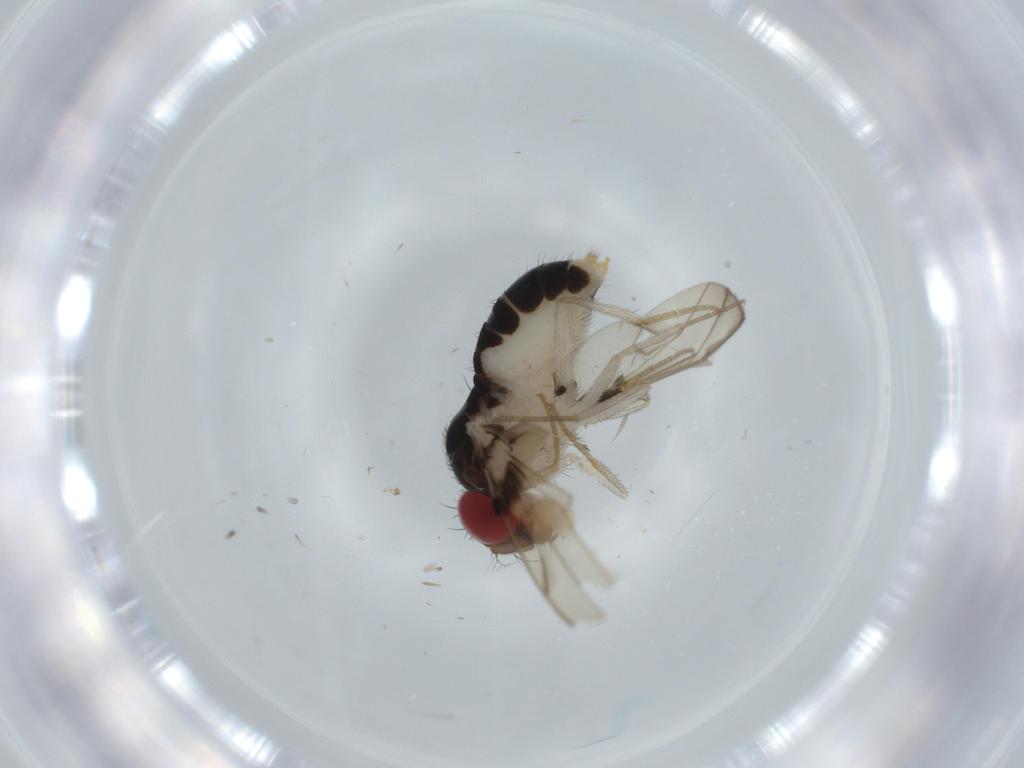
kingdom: Animalia
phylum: Arthropoda
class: Insecta
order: Diptera
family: Drosophilidae
